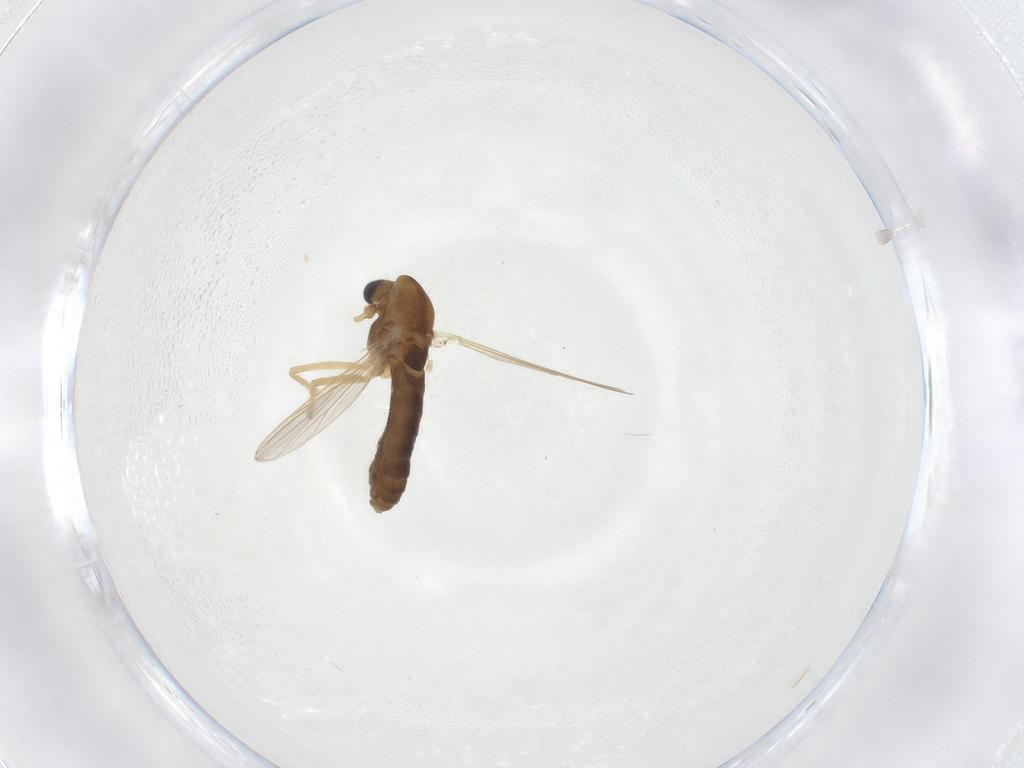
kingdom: Animalia
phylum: Arthropoda
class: Insecta
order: Diptera
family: Chironomidae
